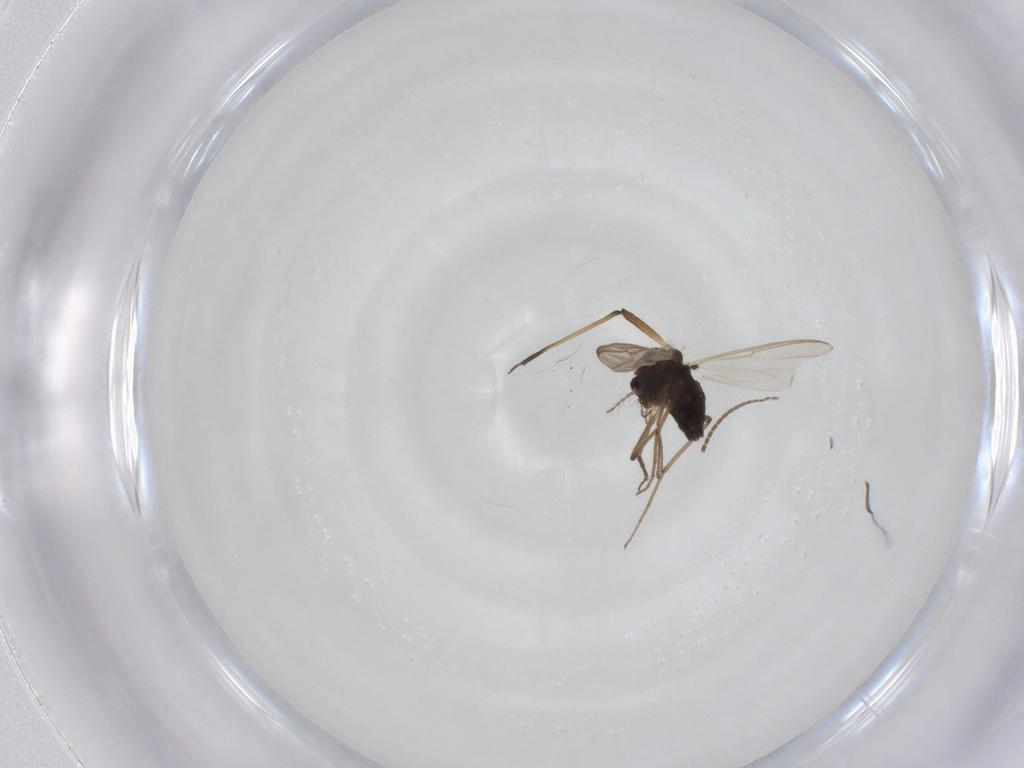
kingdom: Animalia
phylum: Arthropoda
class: Insecta
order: Diptera
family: Chironomidae
